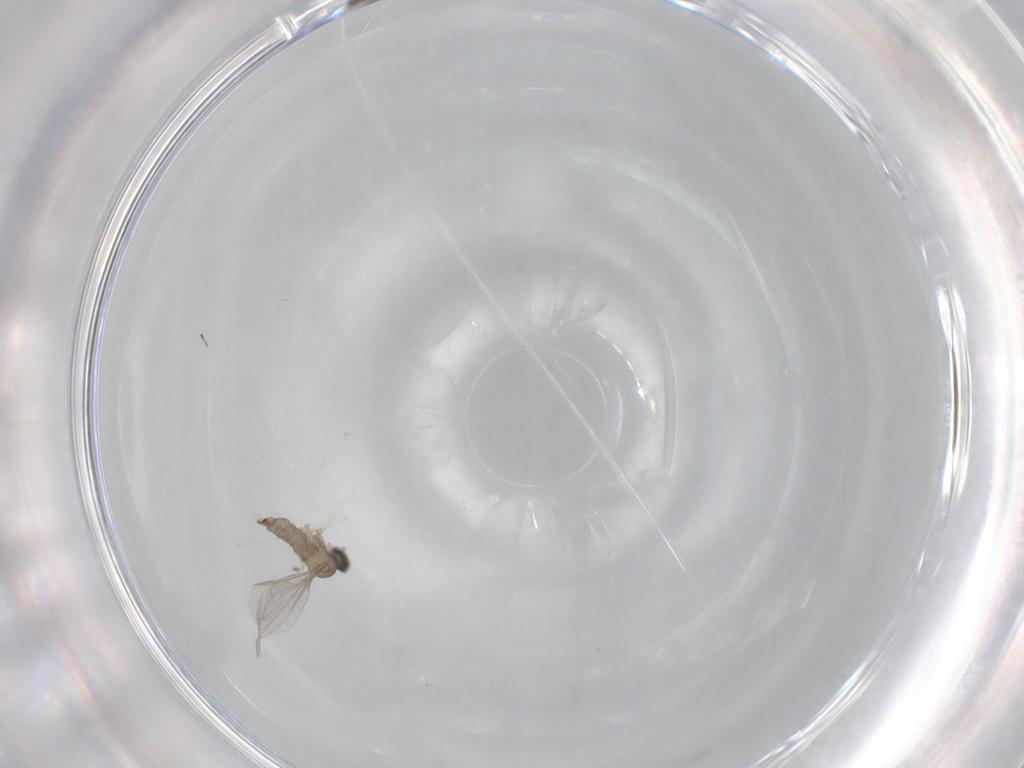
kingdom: Animalia
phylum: Arthropoda
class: Insecta
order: Diptera
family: Cecidomyiidae
